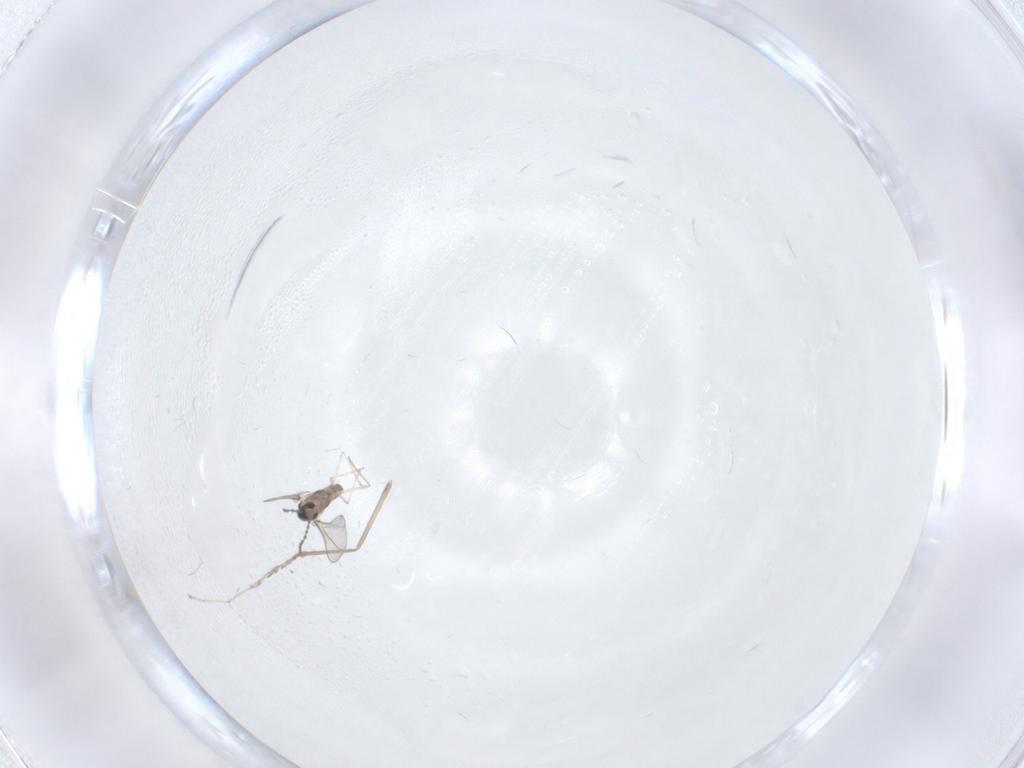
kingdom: Animalia
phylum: Arthropoda
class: Insecta
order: Diptera
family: Cecidomyiidae
